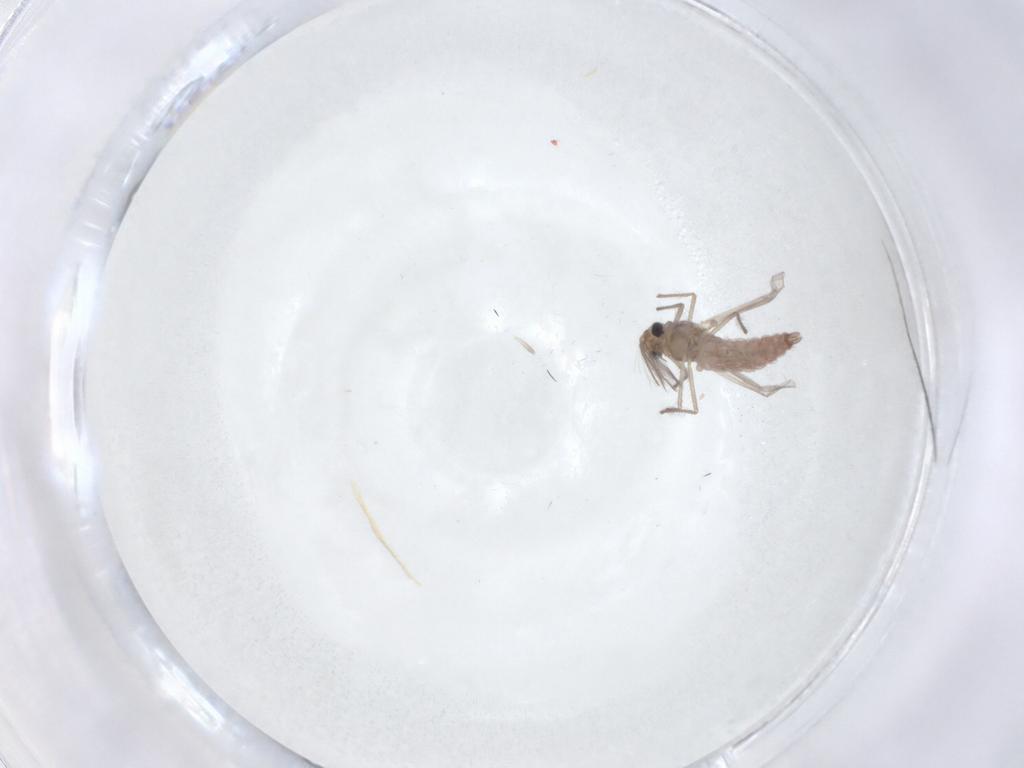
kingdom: Animalia
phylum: Arthropoda
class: Insecta
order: Diptera
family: Chironomidae
